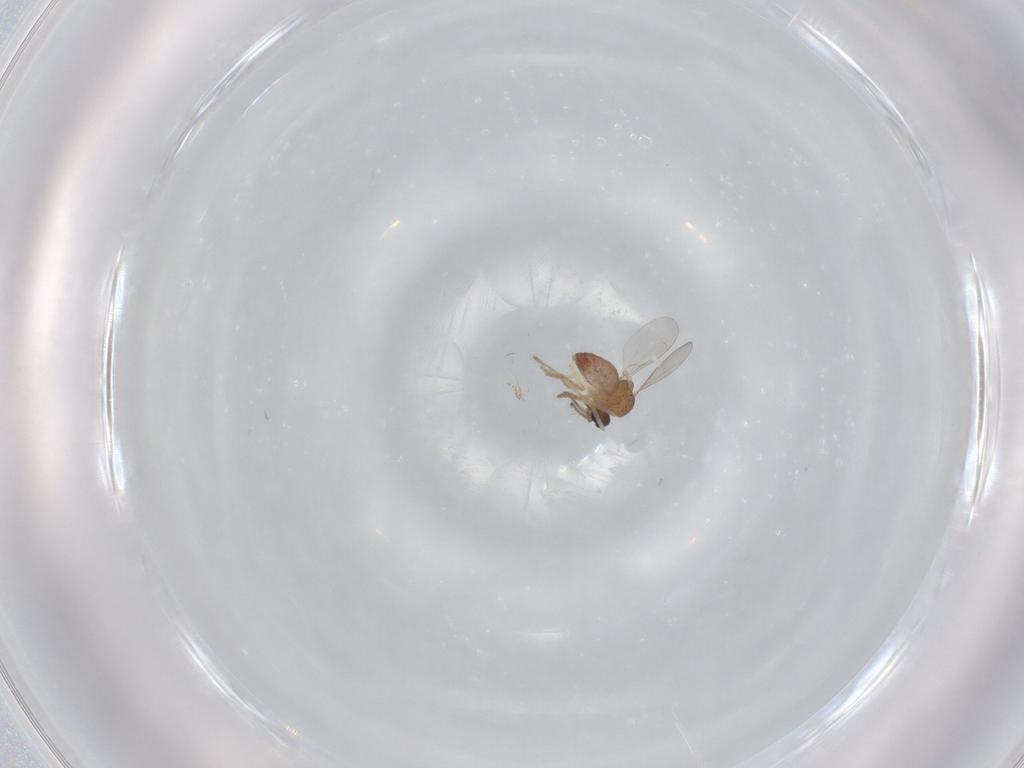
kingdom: Animalia
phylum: Arthropoda
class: Insecta
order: Diptera
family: Ceratopogonidae
